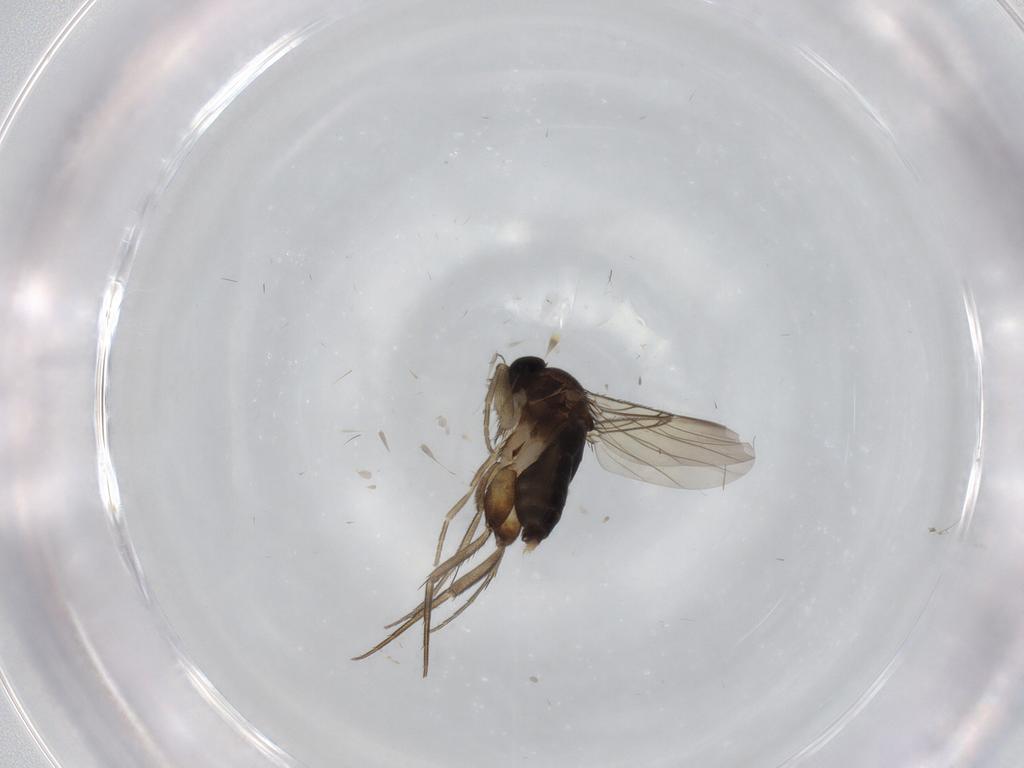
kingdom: Animalia
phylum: Arthropoda
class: Insecta
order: Diptera
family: Phoridae
